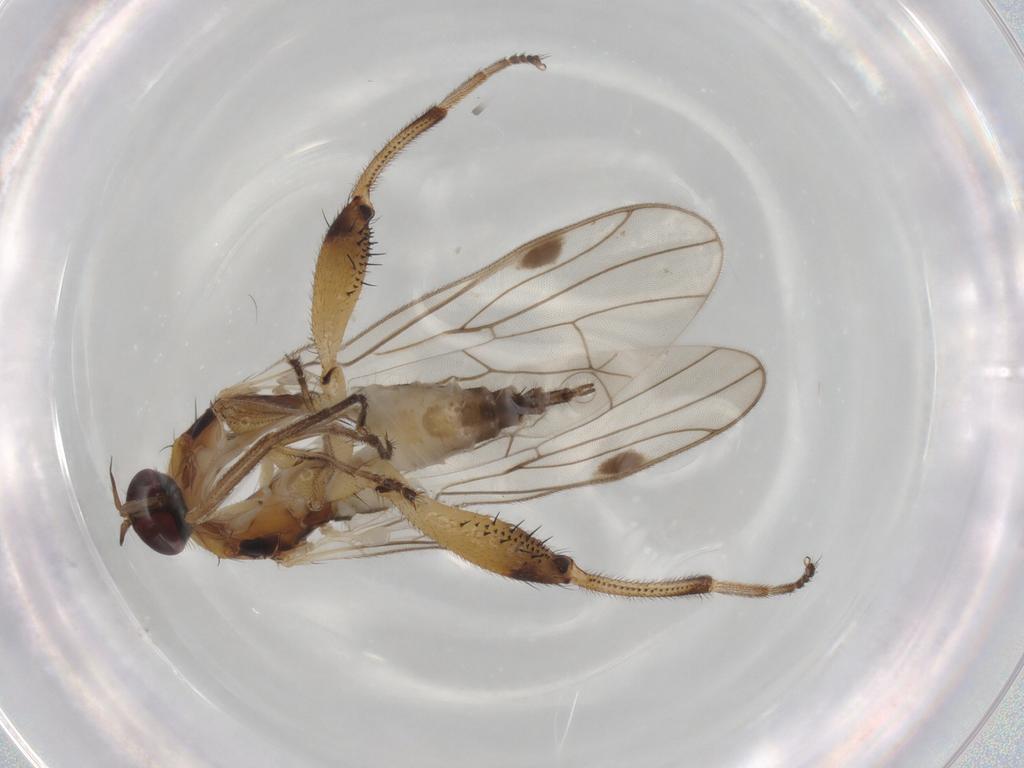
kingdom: Animalia
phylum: Arthropoda
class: Insecta
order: Diptera
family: Hybotidae
